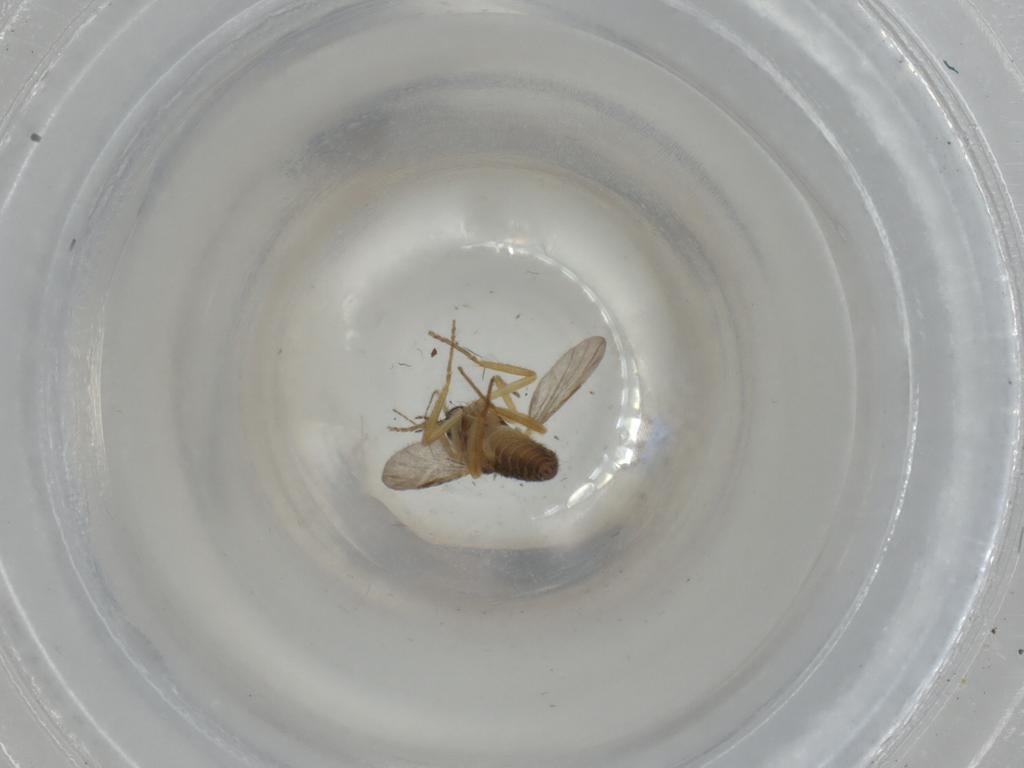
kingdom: Animalia
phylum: Arthropoda
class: Insecta
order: Diptera
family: Ceratopogonidae
